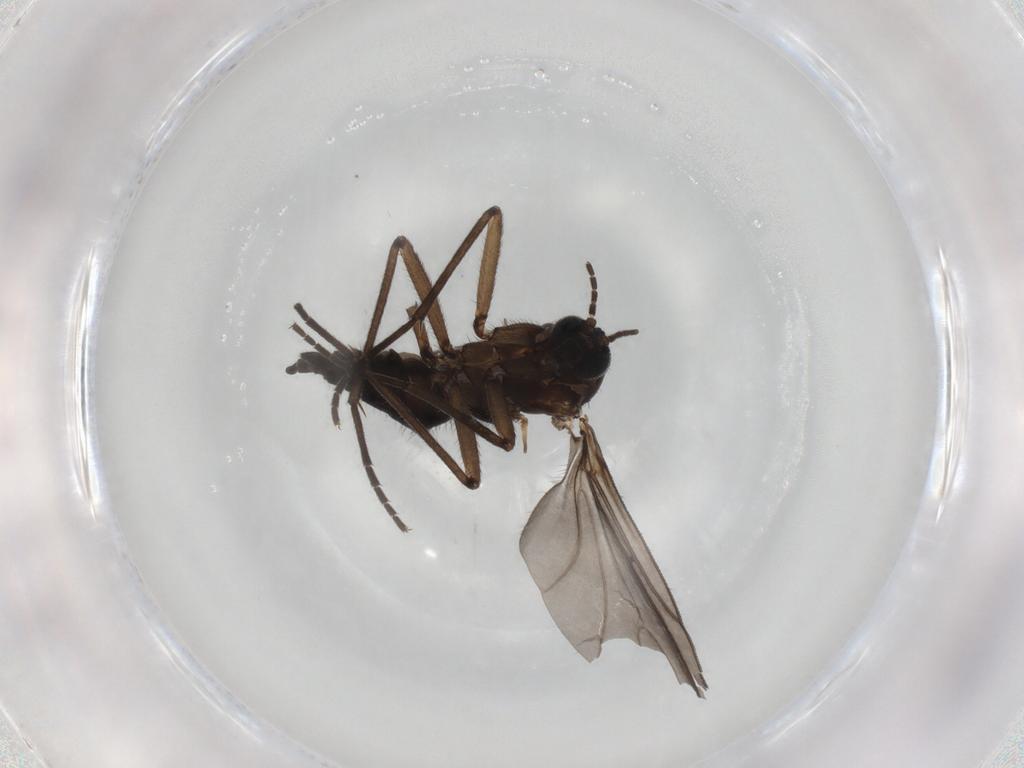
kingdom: Animalia
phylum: Arthropoda
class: Insecta
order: Diptera
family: Sciaridae
